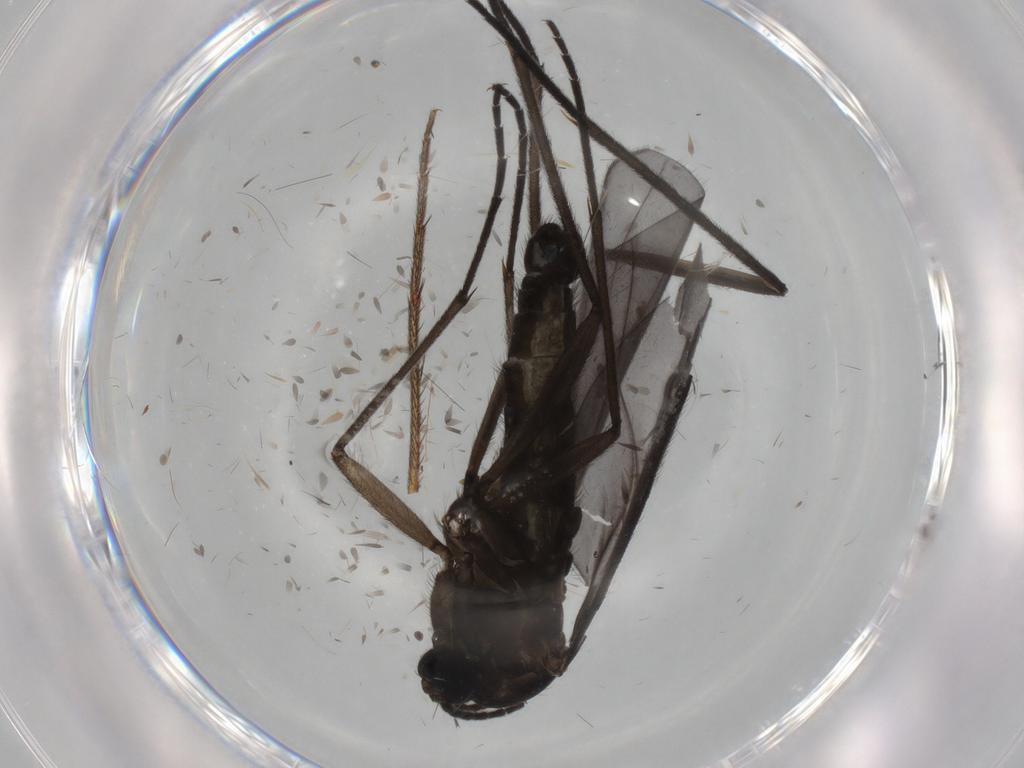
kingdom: Animalia
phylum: Arthropoda
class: Insecta
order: Diptera
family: Sciaridae
